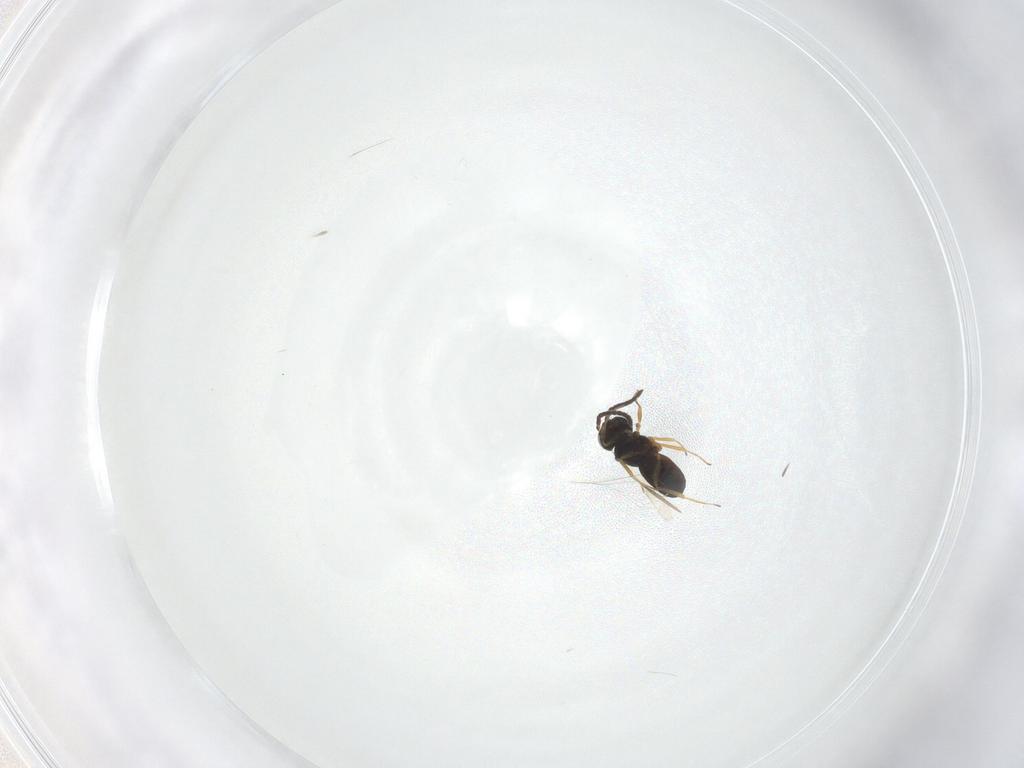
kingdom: Animalia
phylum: Arthropoda
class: Insecta
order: Hymenoptera
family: Scelionidae
